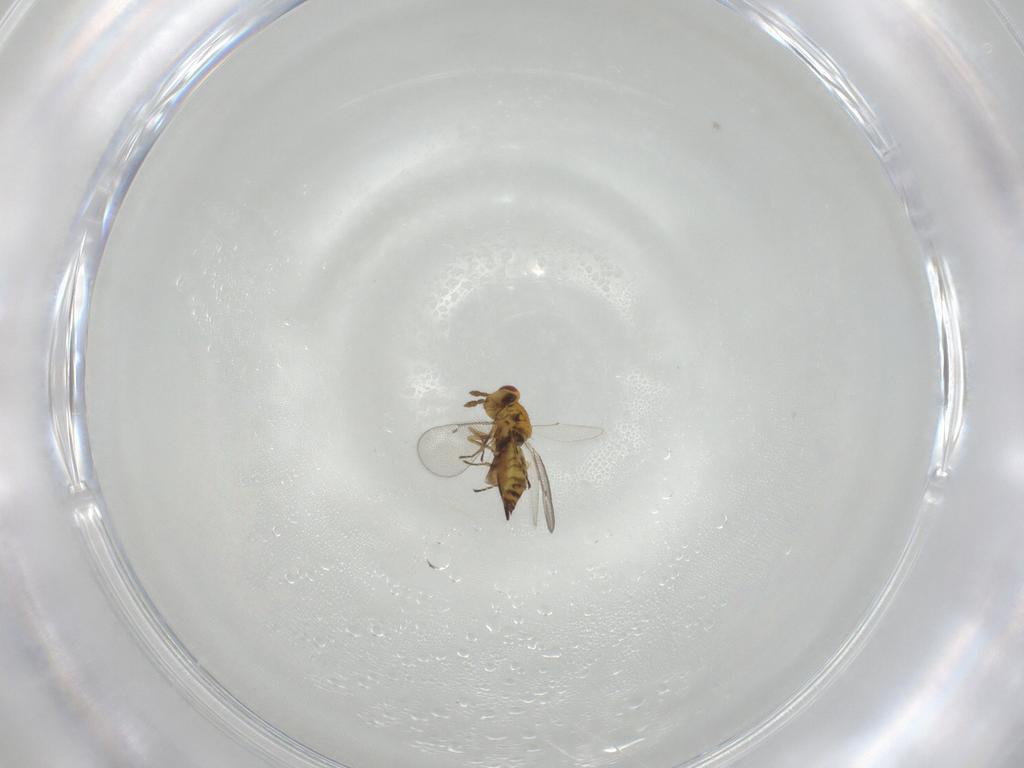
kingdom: Animalia
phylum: Arthropoda
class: Insecta
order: Hymenoptera
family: Eulophidae
